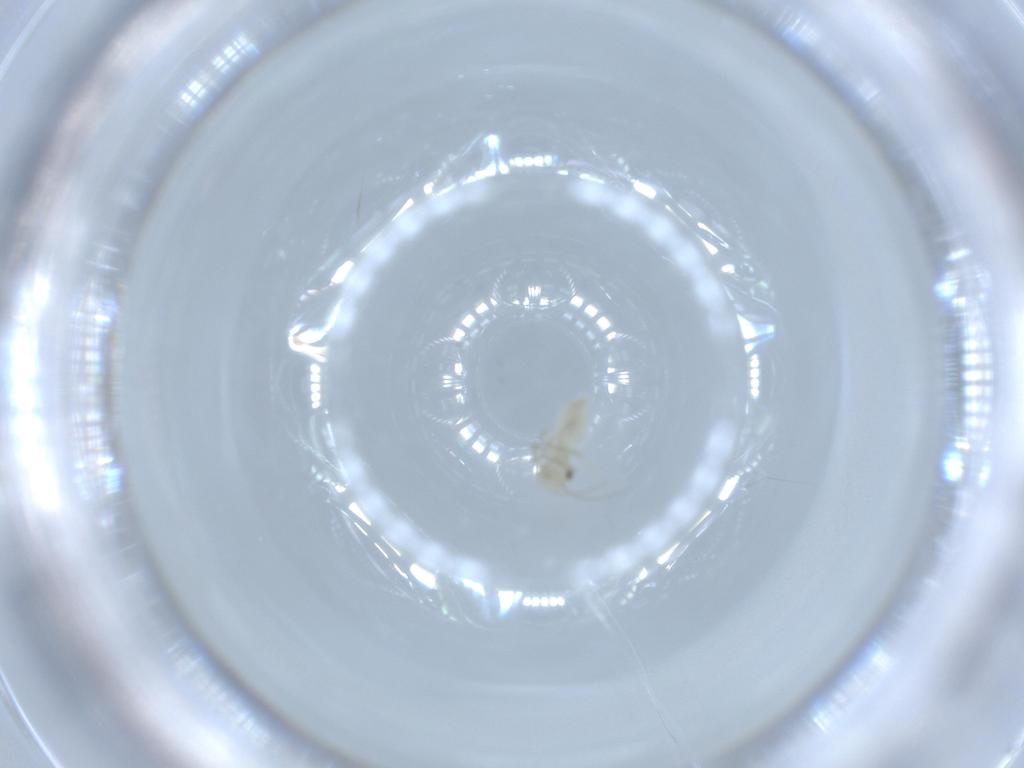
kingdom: Animalia
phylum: Arthropoda
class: Insecta
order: Psocodea
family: Caeciliusidae
